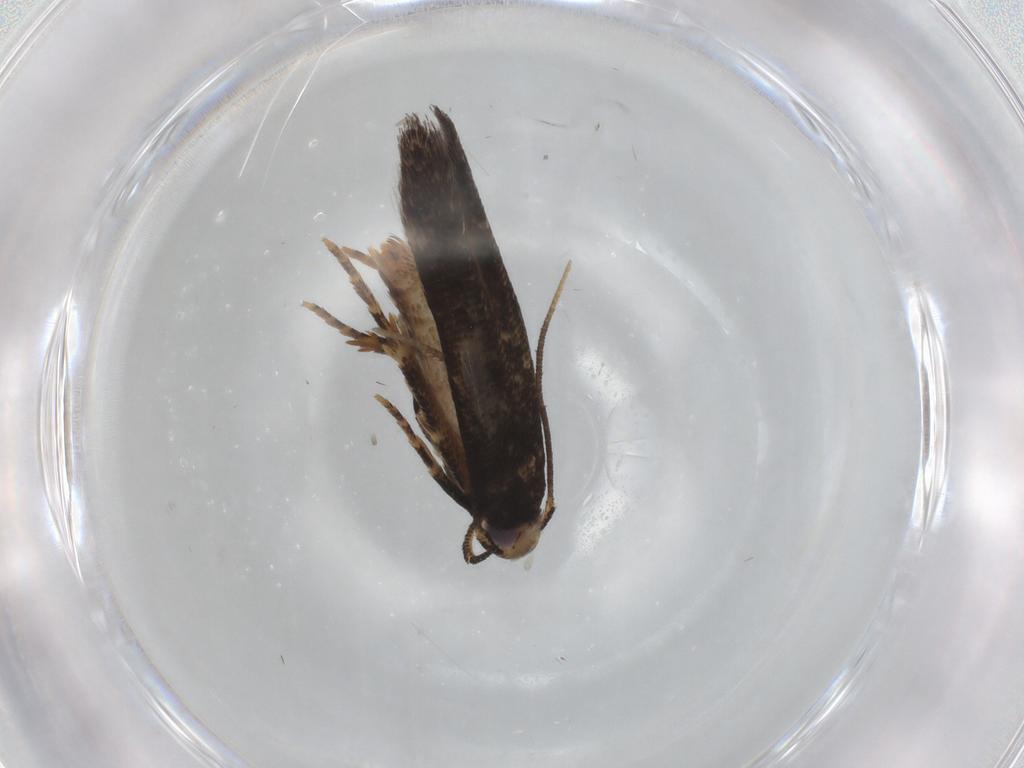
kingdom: Animalia
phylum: Arthropoda
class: Insecta
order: Lepidoptera
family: Cosmopterigidae
